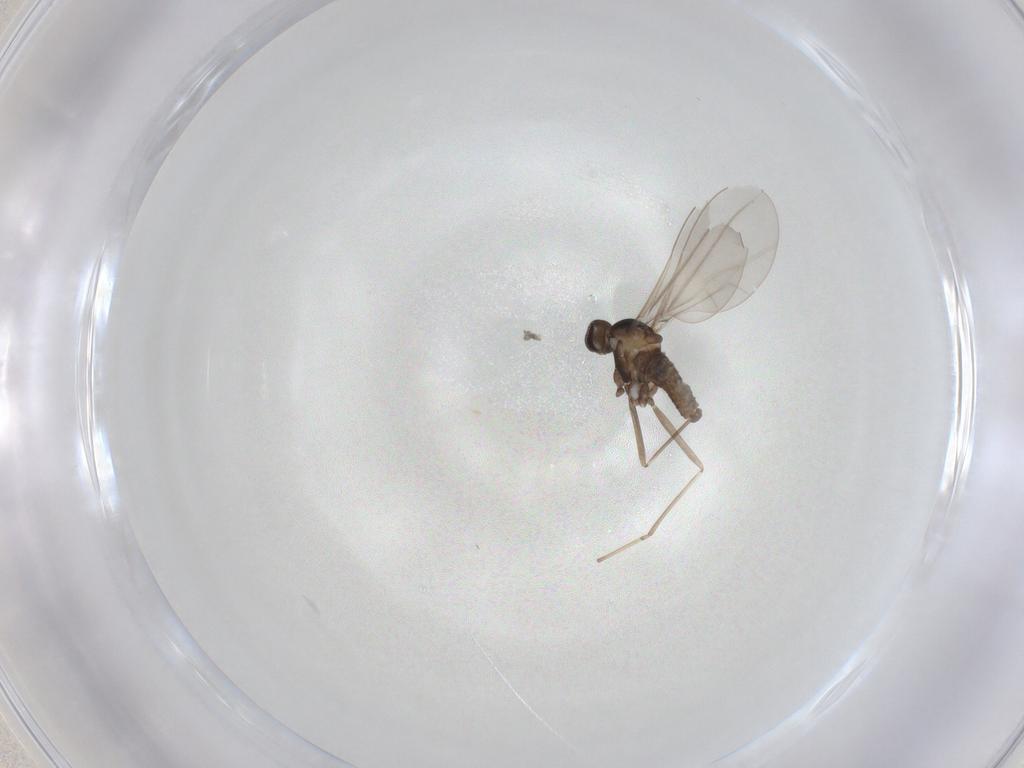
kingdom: Animalia
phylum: Arthropoda
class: Insecta
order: Diptera
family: Cecidomyiidae
